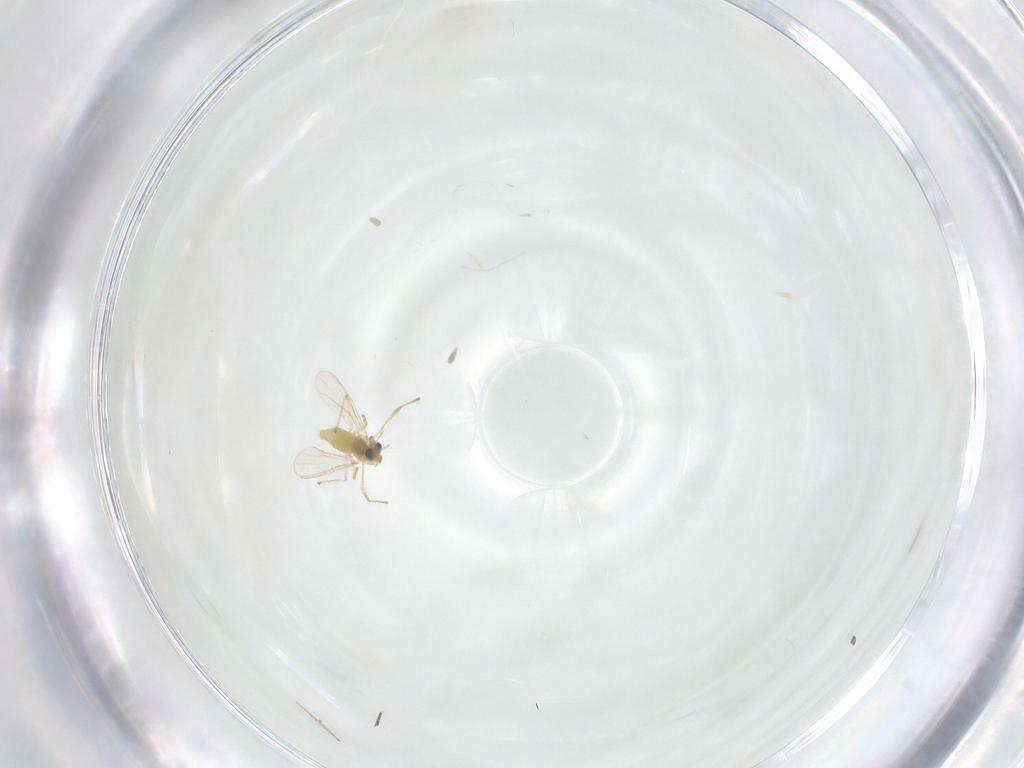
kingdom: Animalia
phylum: Arthropoda
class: Insecta
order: Diptera
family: Chironomidae
